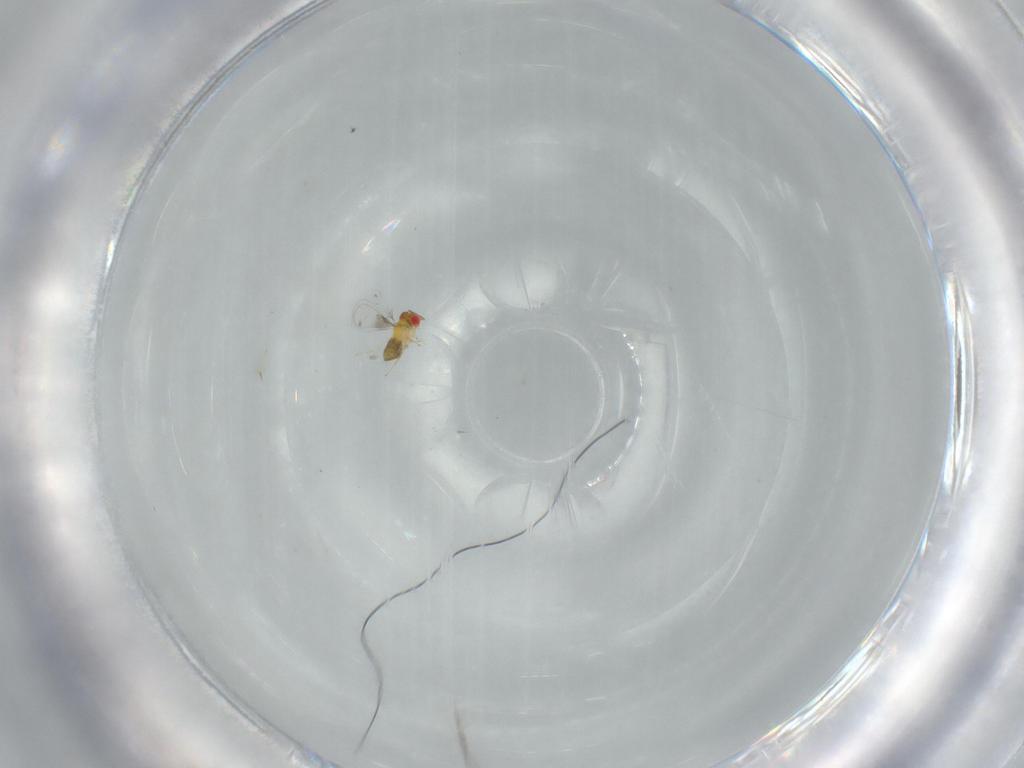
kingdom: Animalia
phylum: Arthropoda
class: Insecta
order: Hymenoptera
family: Trichogrammatidae
